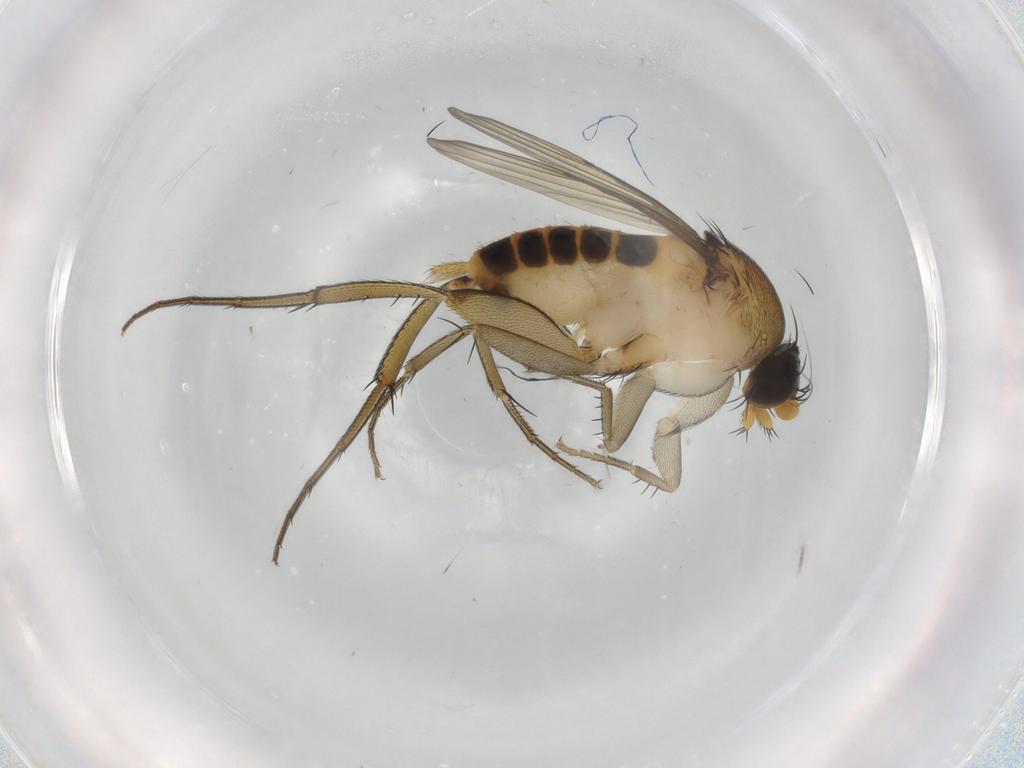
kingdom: Animalia
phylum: Arthropoda
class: Insecta
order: Diptera
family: Phoridae
